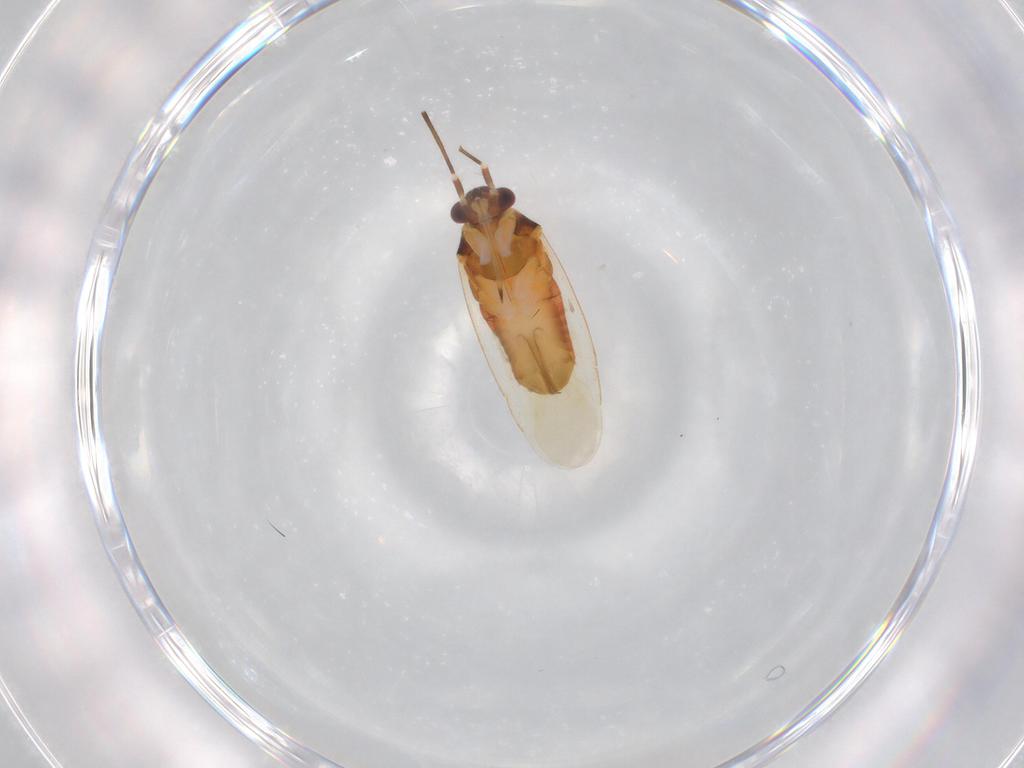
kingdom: Animalia
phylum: Arthropoda
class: Insecta
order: Hemiptera
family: Miridae
